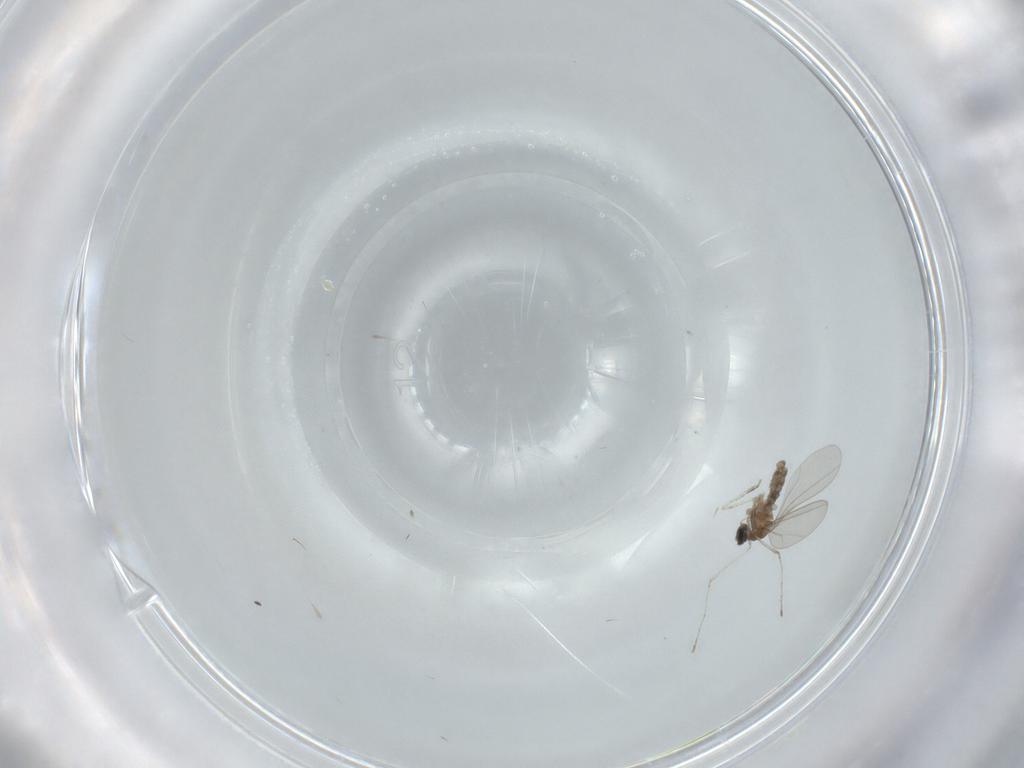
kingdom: Animalia
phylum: Arthropoda
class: Insecta
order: Diptera
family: Cecidomyiidae
